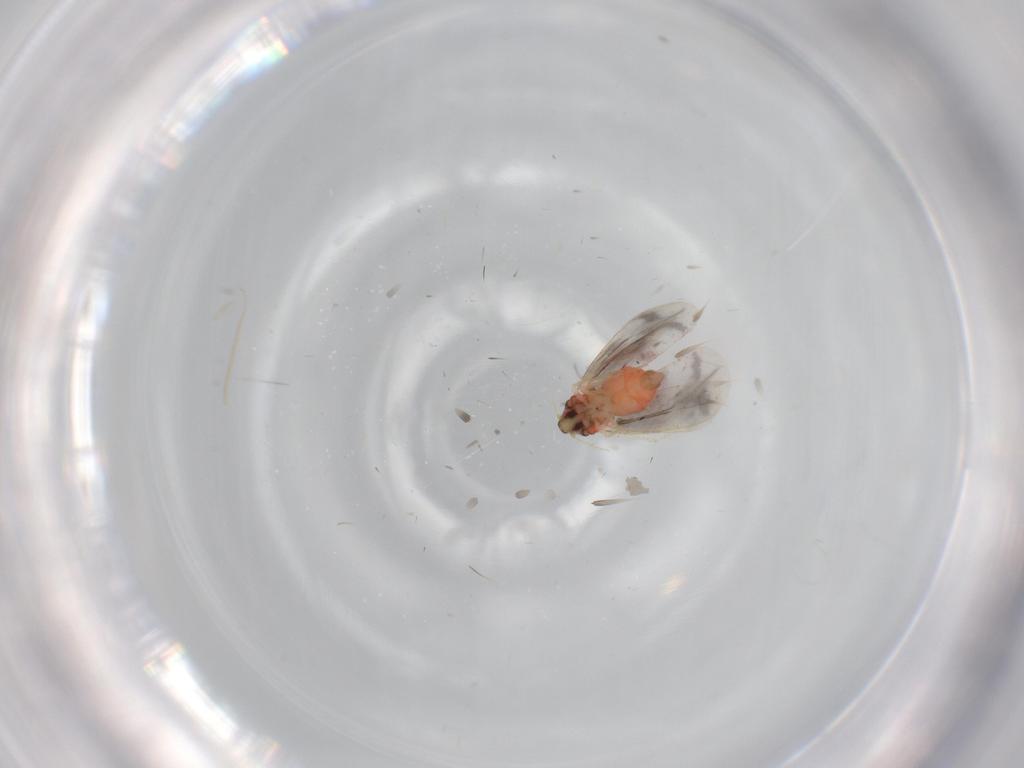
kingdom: Animalia
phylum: Arthropoda
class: Insecta
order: Hemiptera
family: Aleyrodidae
